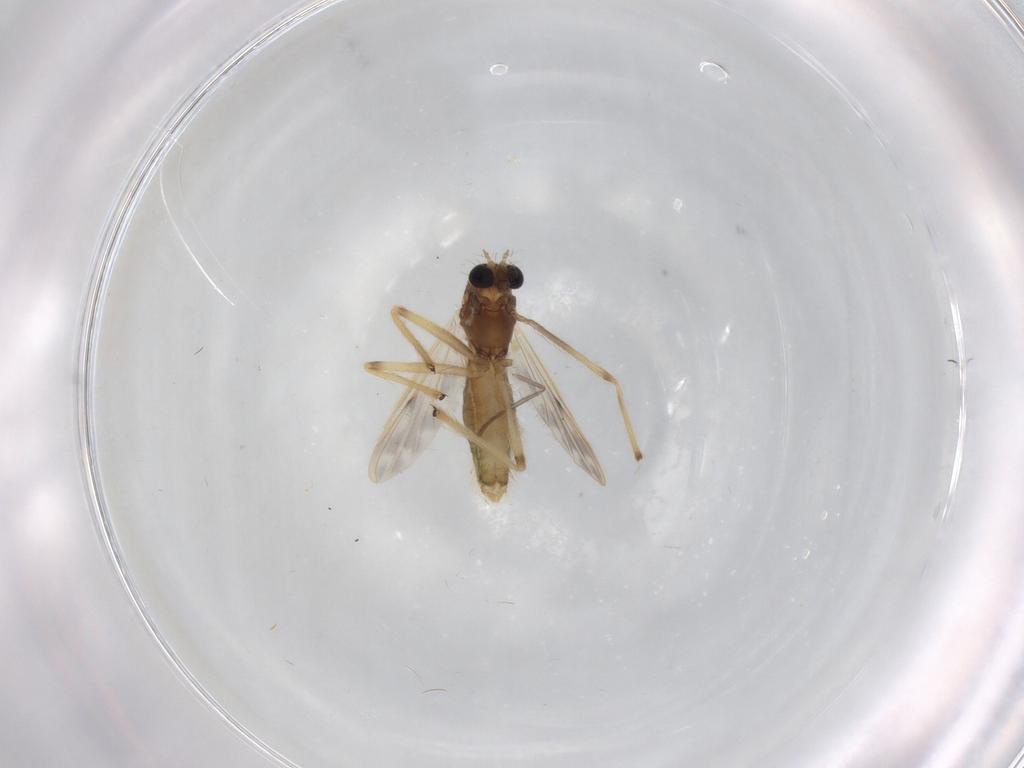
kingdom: Animalia
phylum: Arthropoda
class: Insecta
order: Diptera
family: Chironomidae
